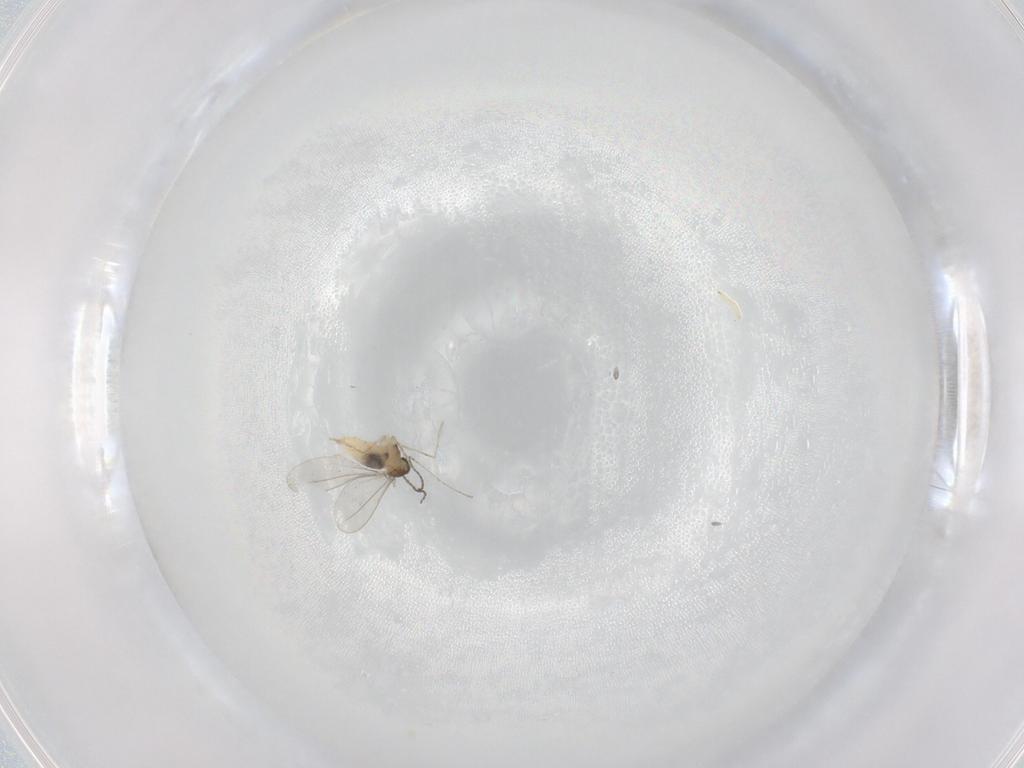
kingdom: Animalia
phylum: Arthropoda
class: Insecta
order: Diptera
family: Cecidomyiidae
